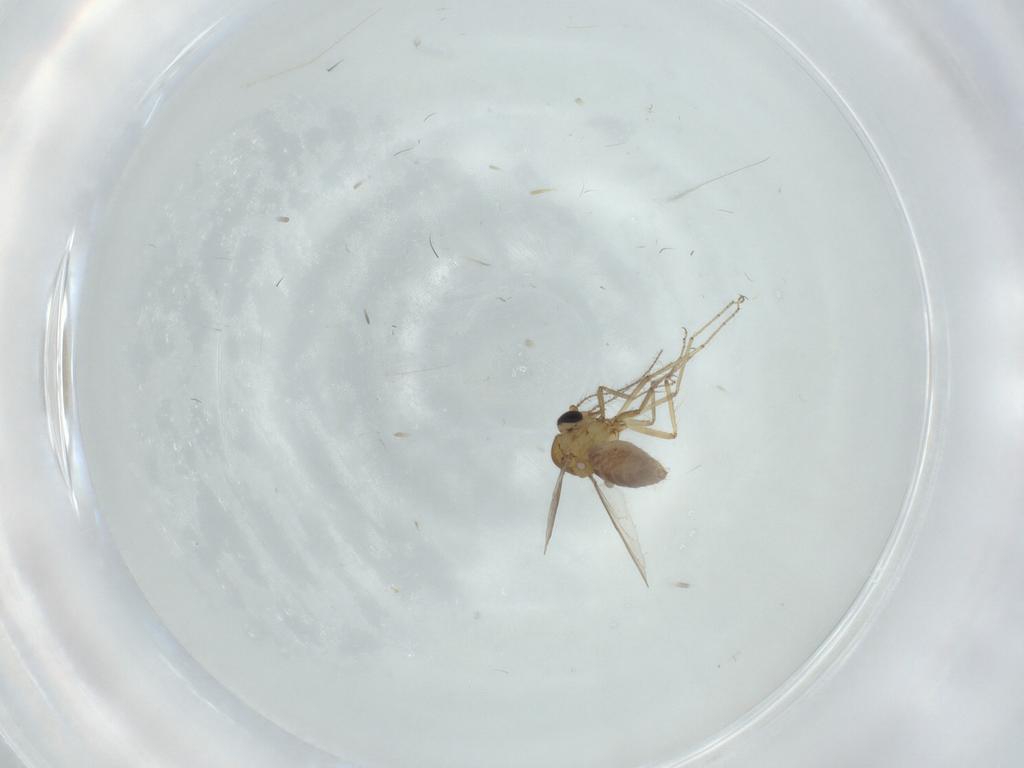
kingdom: Animalia
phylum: Arthropoda
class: Insecta
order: Diptera
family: Ceratopogonidae
